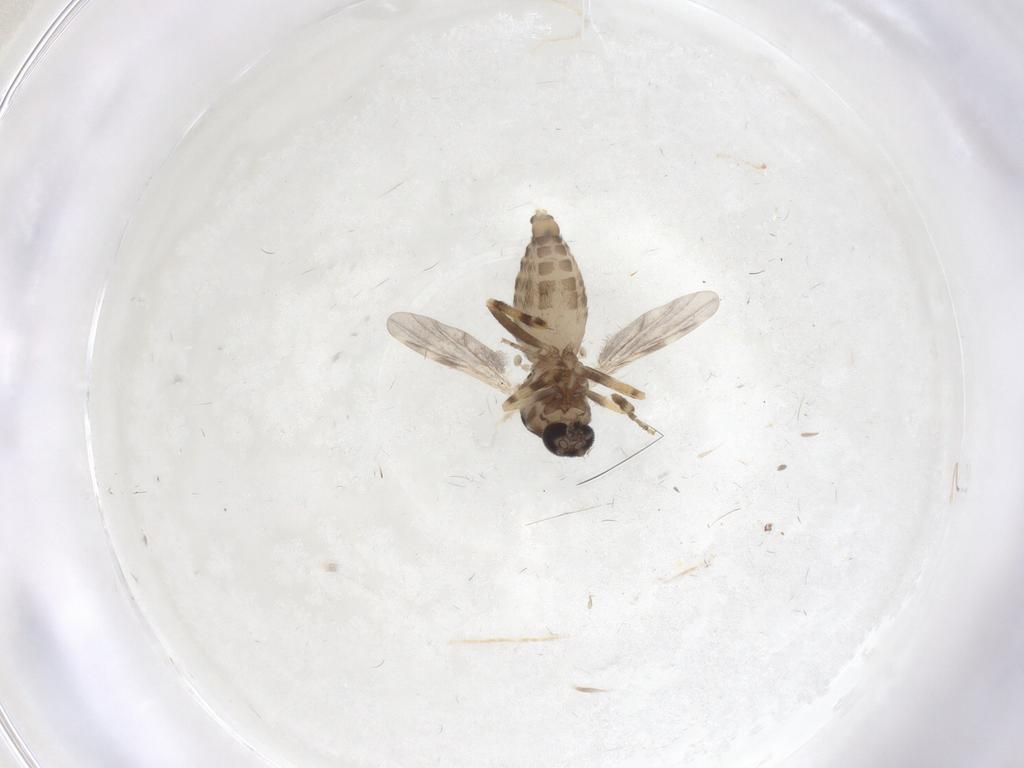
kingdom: Animalia
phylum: Arthropoda
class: Insecta
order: Diptera
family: Ceratopogonidae
